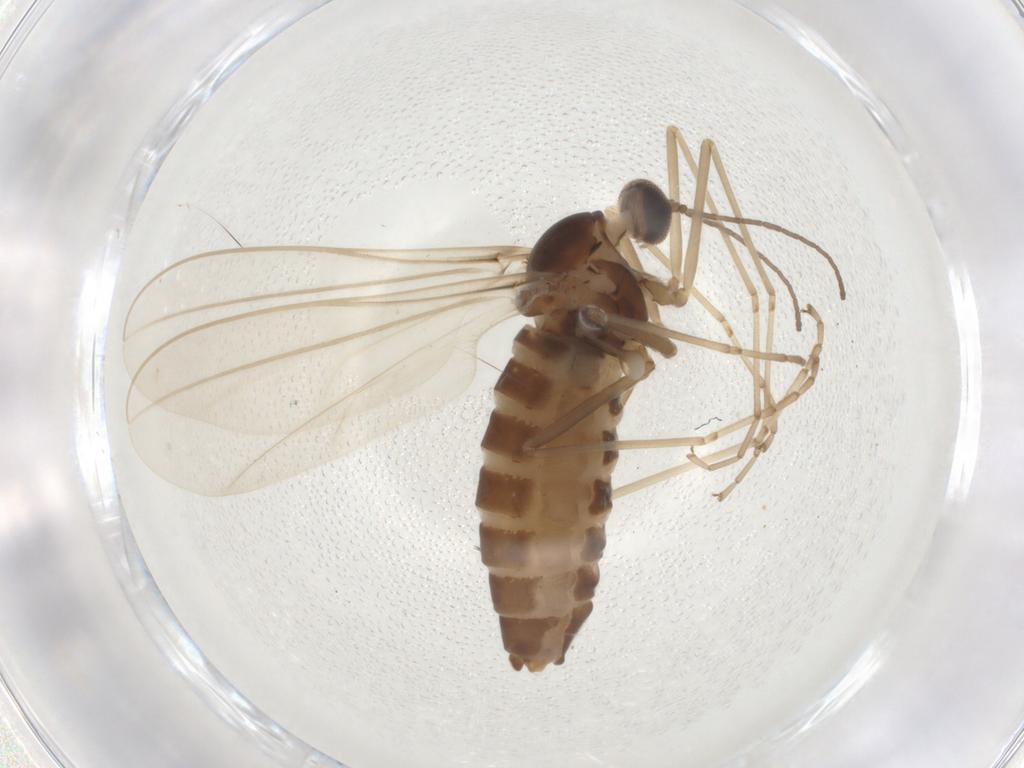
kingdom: Animalia
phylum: Arthropoda
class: Insecta
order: Diptera
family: Cecidomyiidae
